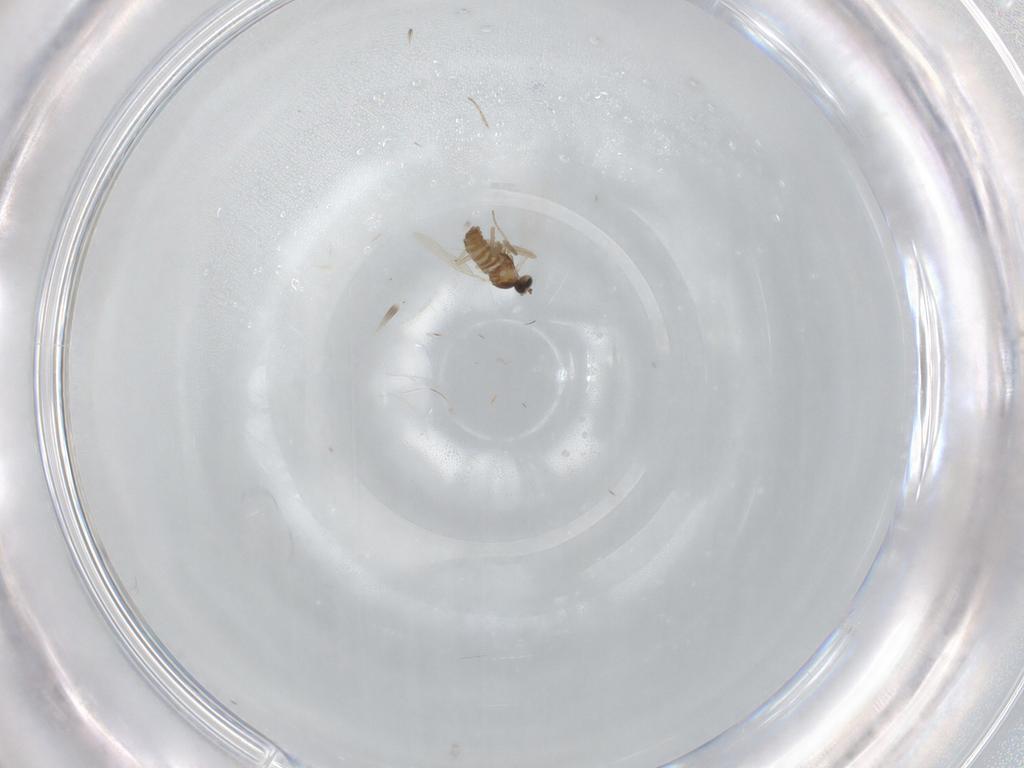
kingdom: Animalia
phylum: Arthropoda
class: Insecta
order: Diptera
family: Cecidomyiidae
